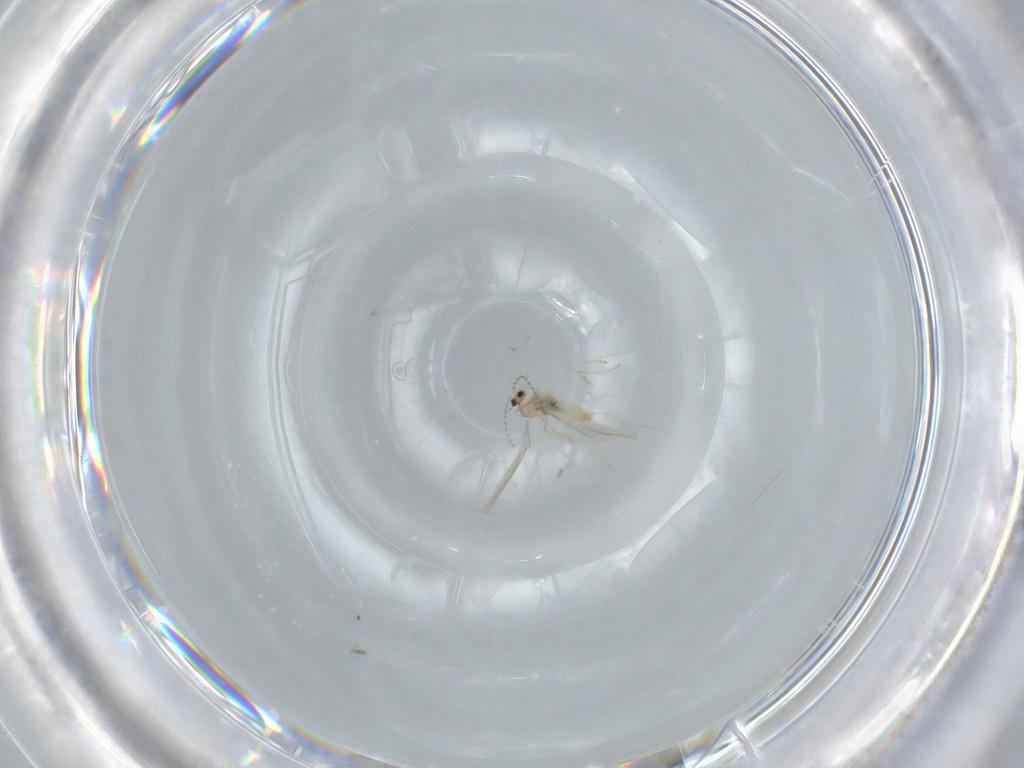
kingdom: Animalia
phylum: Arthropoda
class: Insecta
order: Diptera
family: Cecidomyiidae
